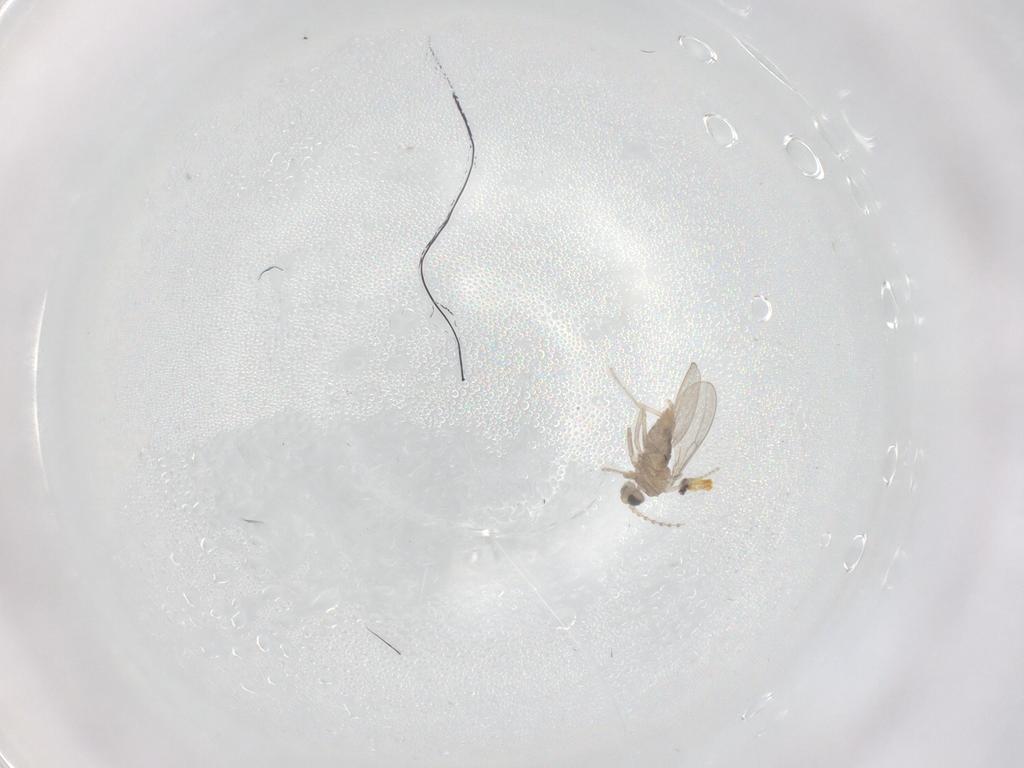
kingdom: Animalia
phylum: Arthropoda
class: Insecta
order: Diptera
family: Cecidomyiidae
